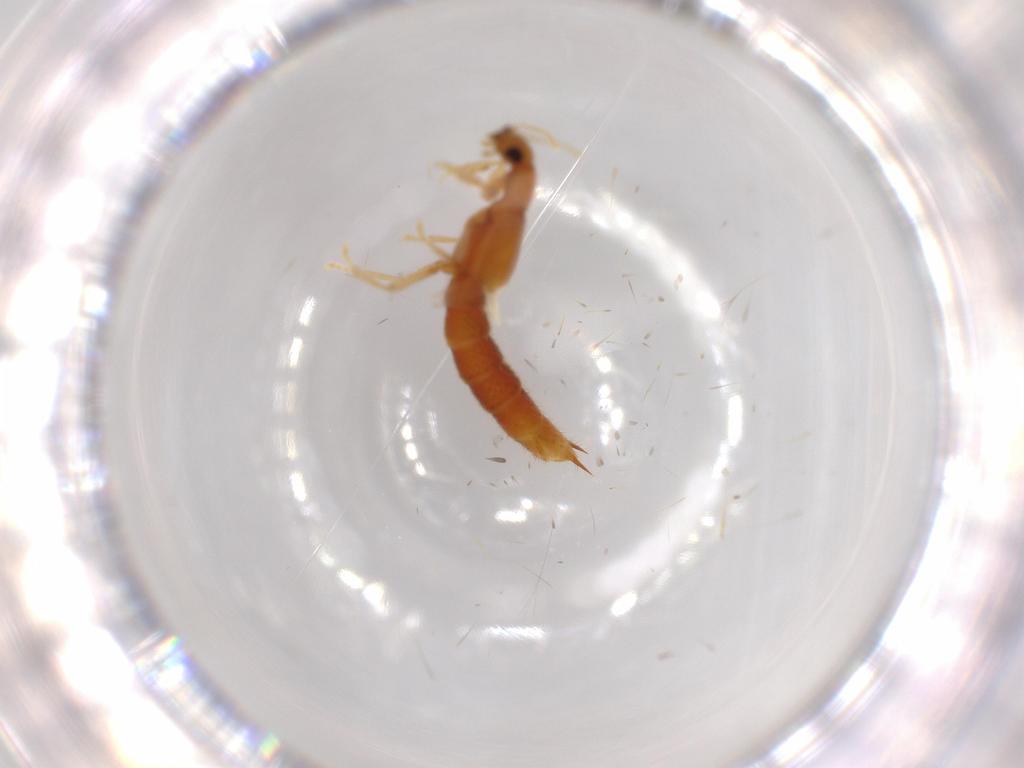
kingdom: Animalia
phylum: Arthropoda
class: Insecta
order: Coleoptera
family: Staphylinidae
